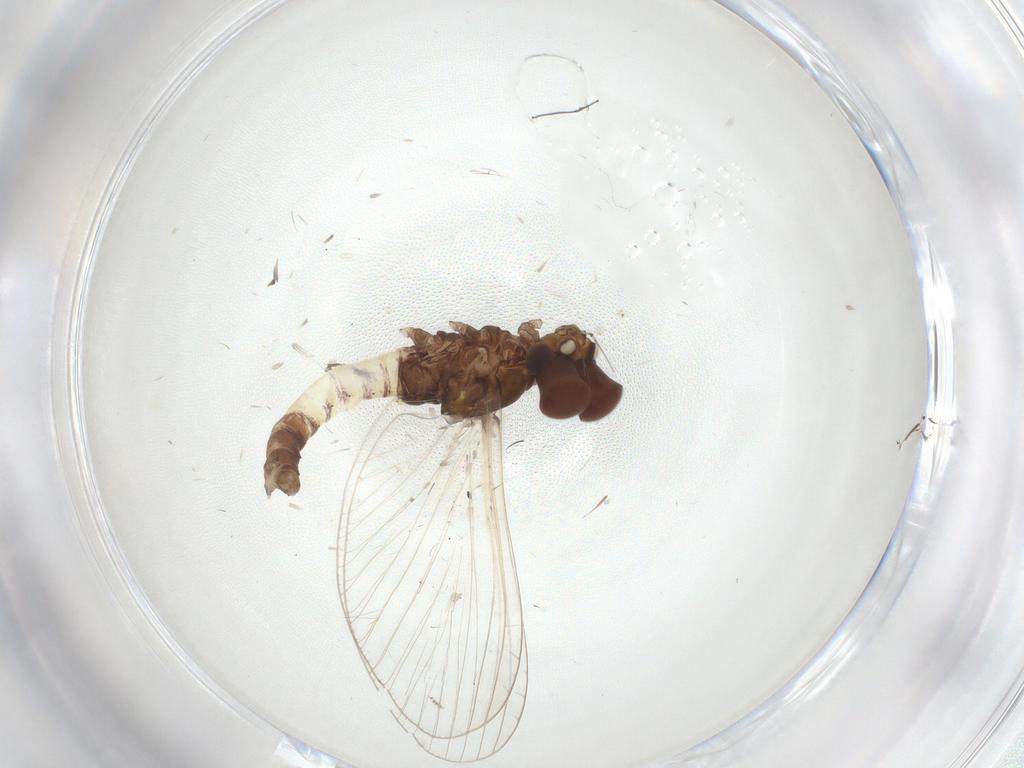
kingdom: Animalia
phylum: Arthropoda
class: Insecta
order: Ephemeroptera
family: Baetidae
